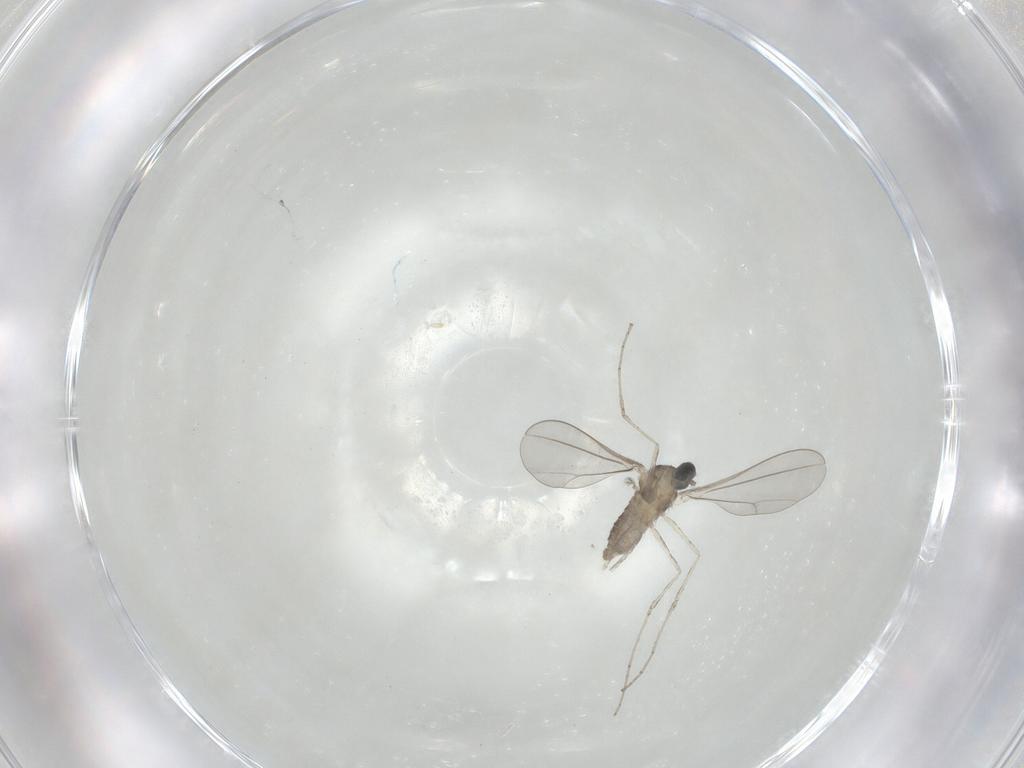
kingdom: Animalia
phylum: Arthropoda
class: Insecta
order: Diptera
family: Cecidomyiidae
